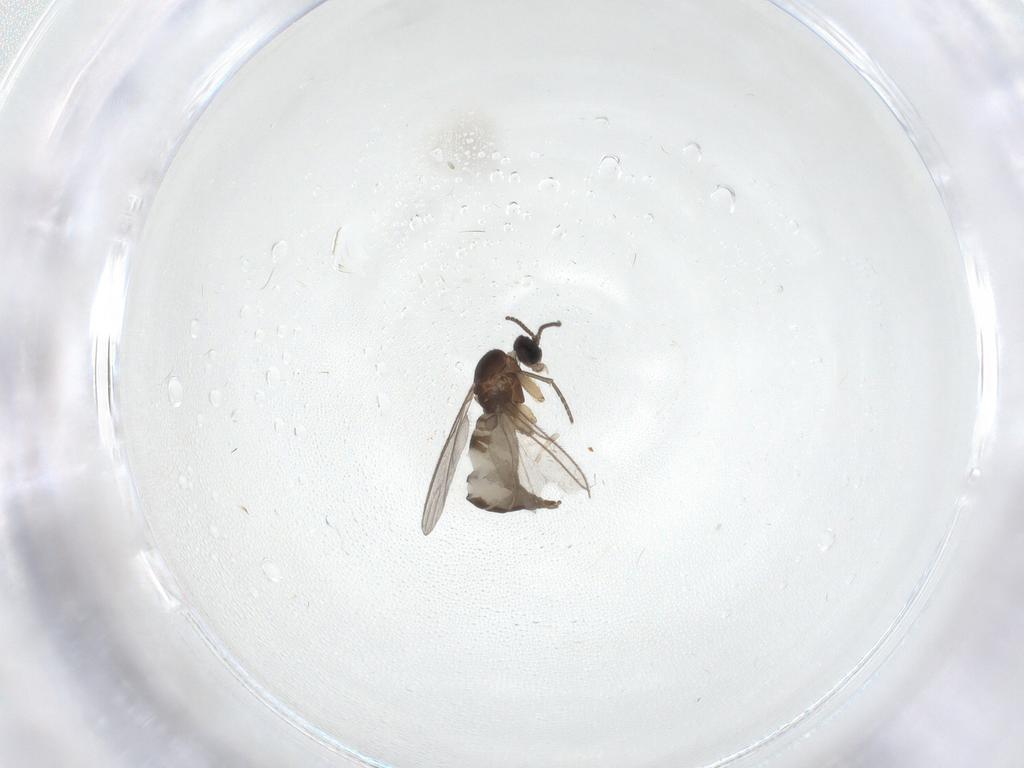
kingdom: Animalia
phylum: Arthropoda
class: Insecta
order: Diptera
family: Sciaridae
